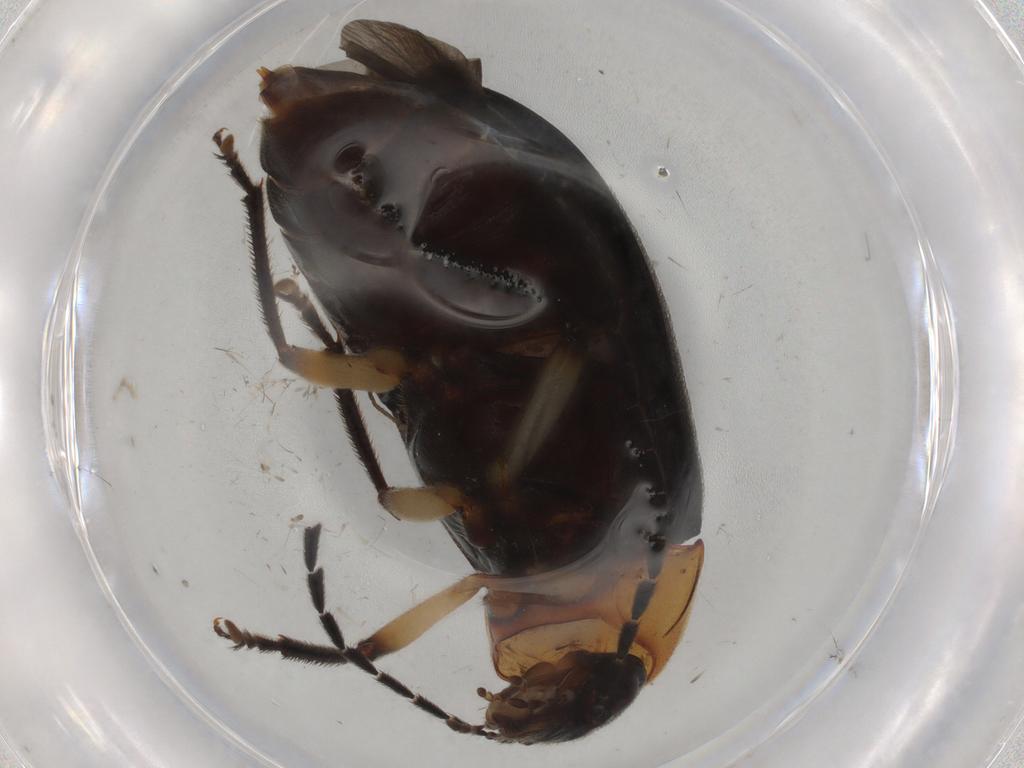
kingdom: Animalia
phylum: Arthropoda
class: Insecta
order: Coleoptera
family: Ptilodactylidae
